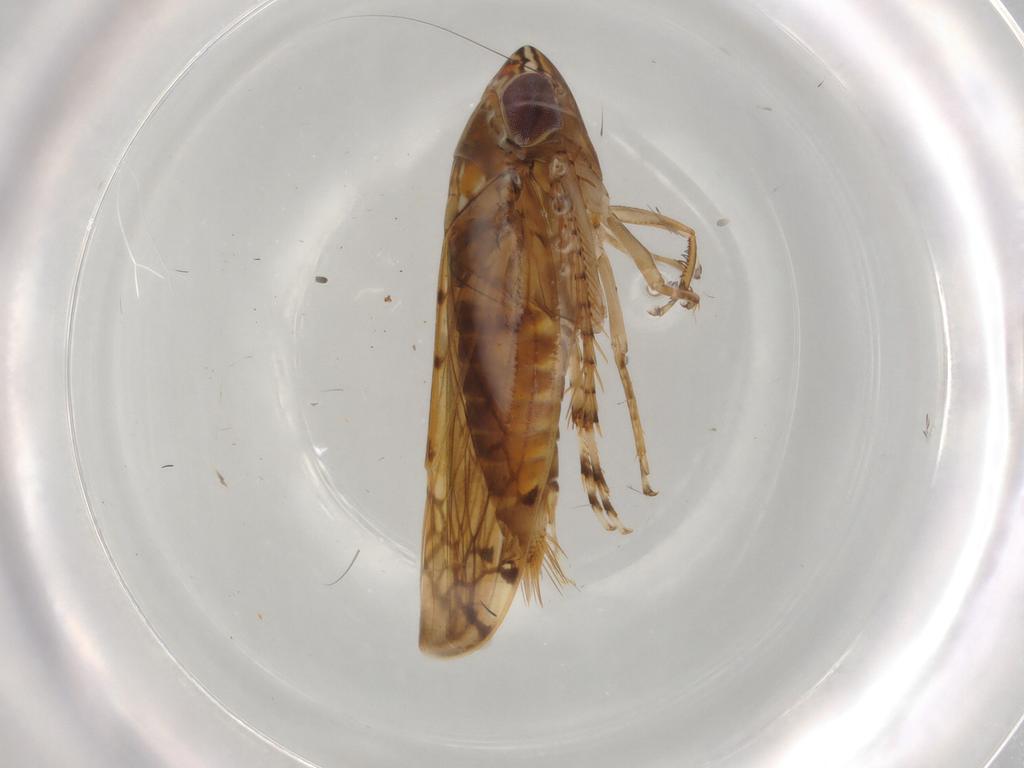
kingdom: Animalia
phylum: Arthropoda
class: Insecta
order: Hemiptera
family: Cicadellidae
